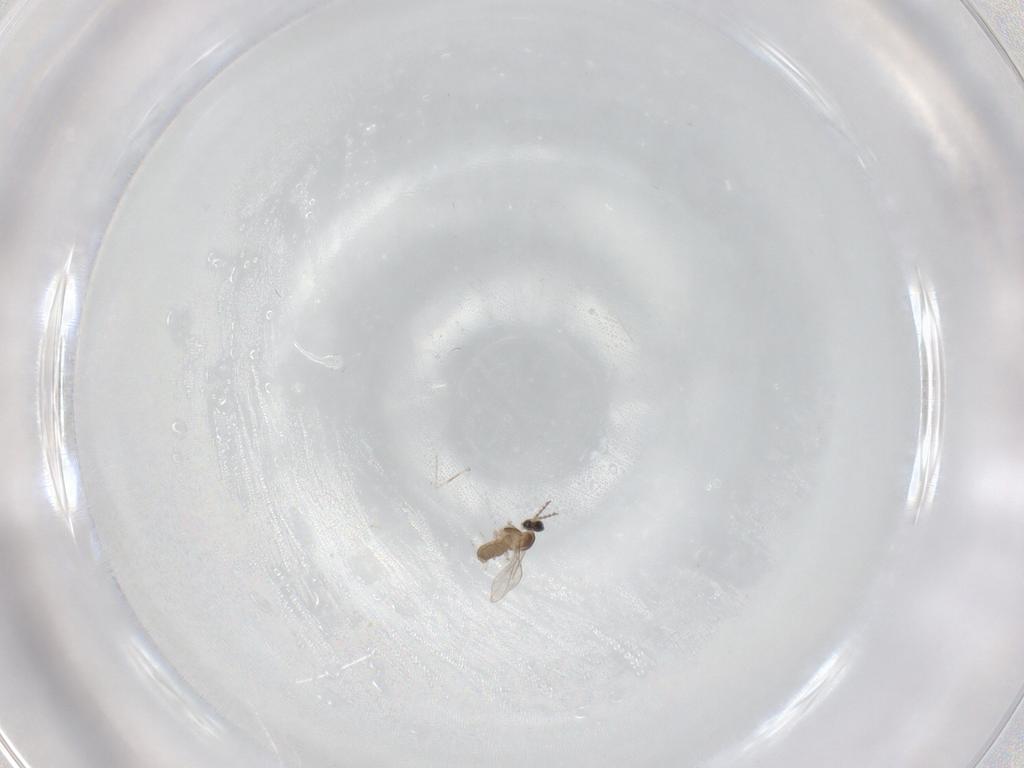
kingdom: Animalia
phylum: Arthropoda
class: Insecta
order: Diptera
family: Cecidomyiidae
